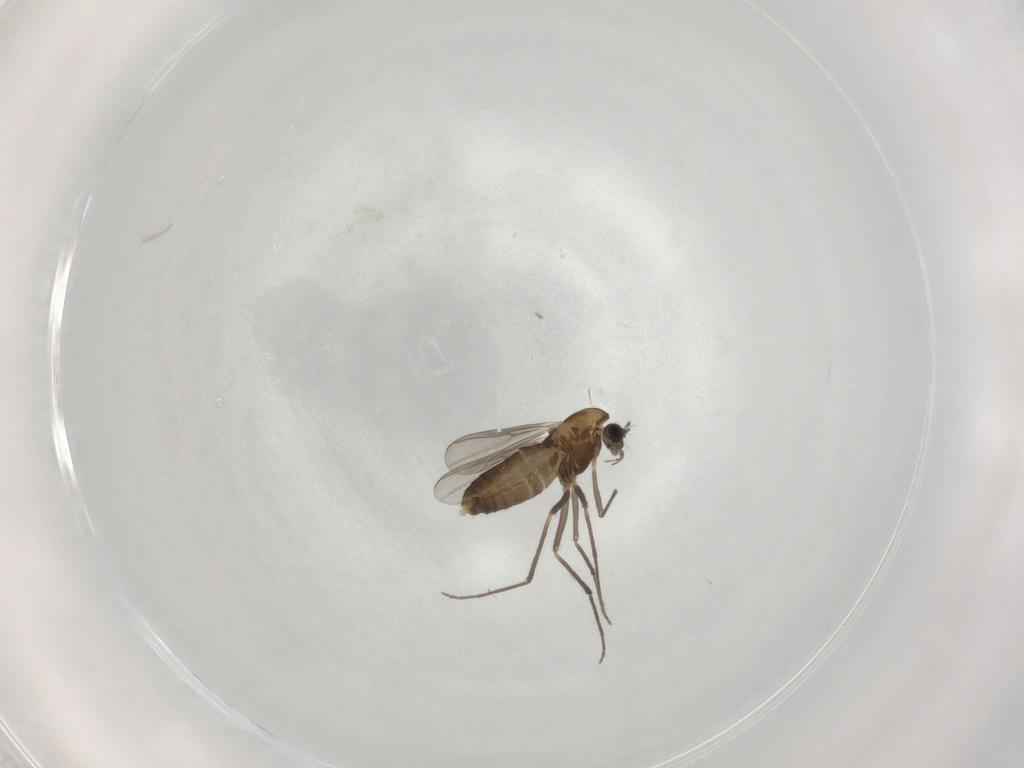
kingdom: Animalia
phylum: Arthropoda
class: Insecta
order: Diptera
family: Chironomidae
